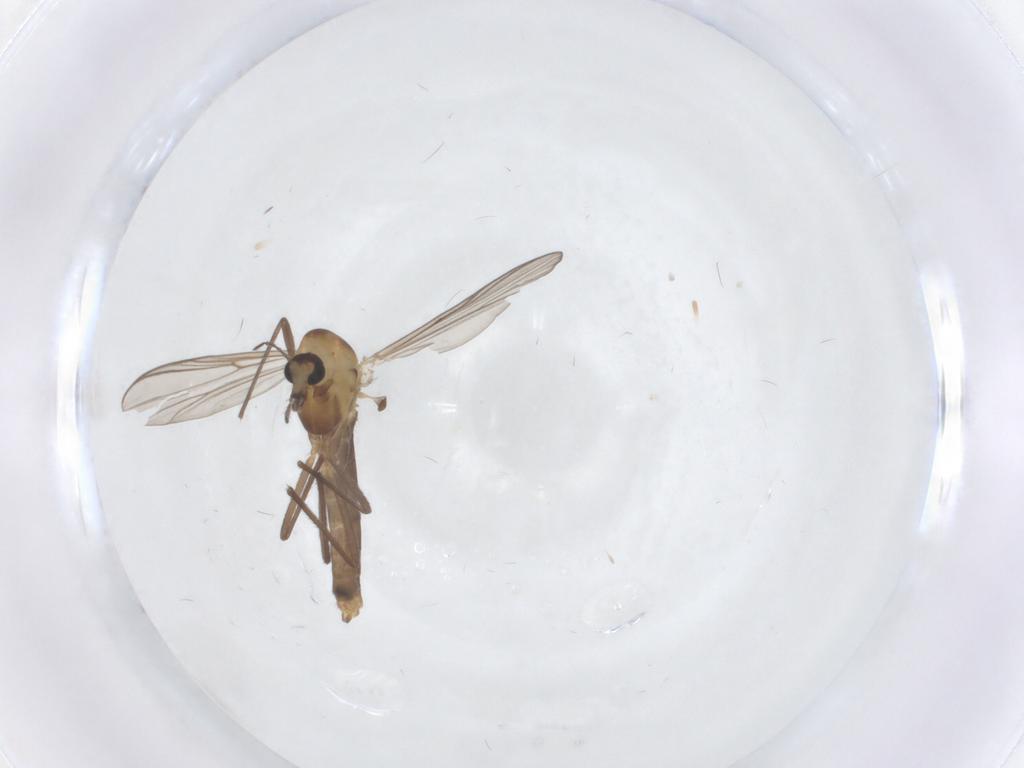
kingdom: Animalia
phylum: Arthropoda
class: Insecta
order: Diptera
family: Chironomidae
